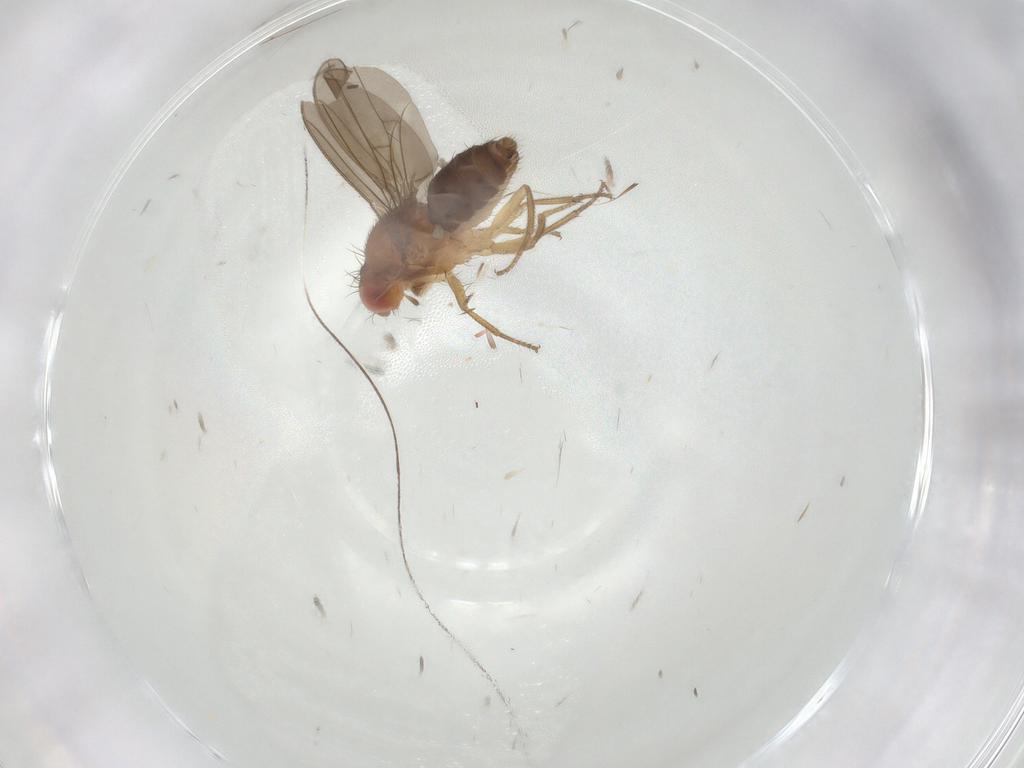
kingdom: Animalia
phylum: Arthropoda
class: Insecta
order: Diptera
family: Drosophilidae
